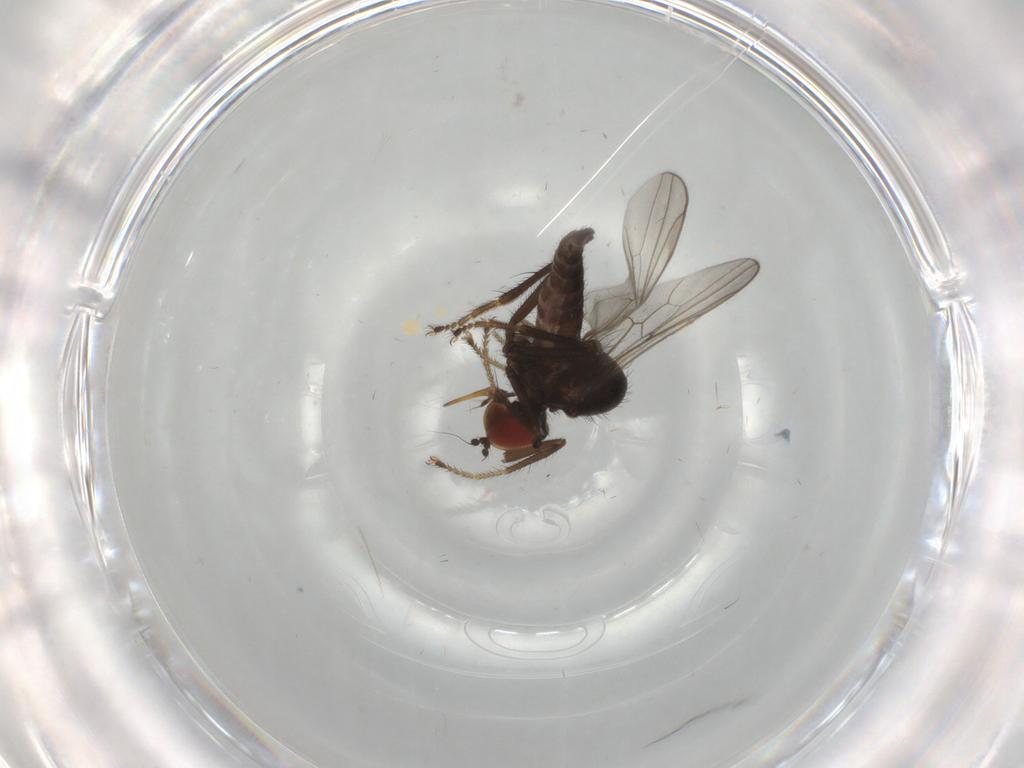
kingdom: Animalia
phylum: Arthropoda
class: Insecta
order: Diptera
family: Hybotidae
